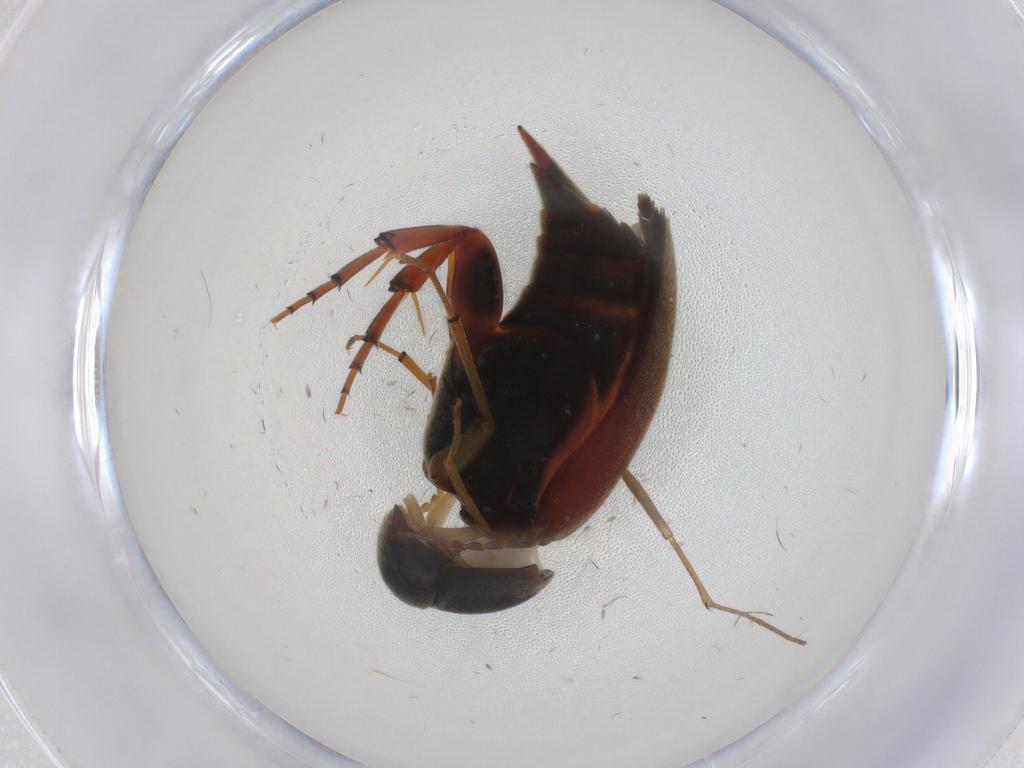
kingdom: Animalia
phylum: Arthropoda
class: Insecta
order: Coleoptera
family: Mordellidae
